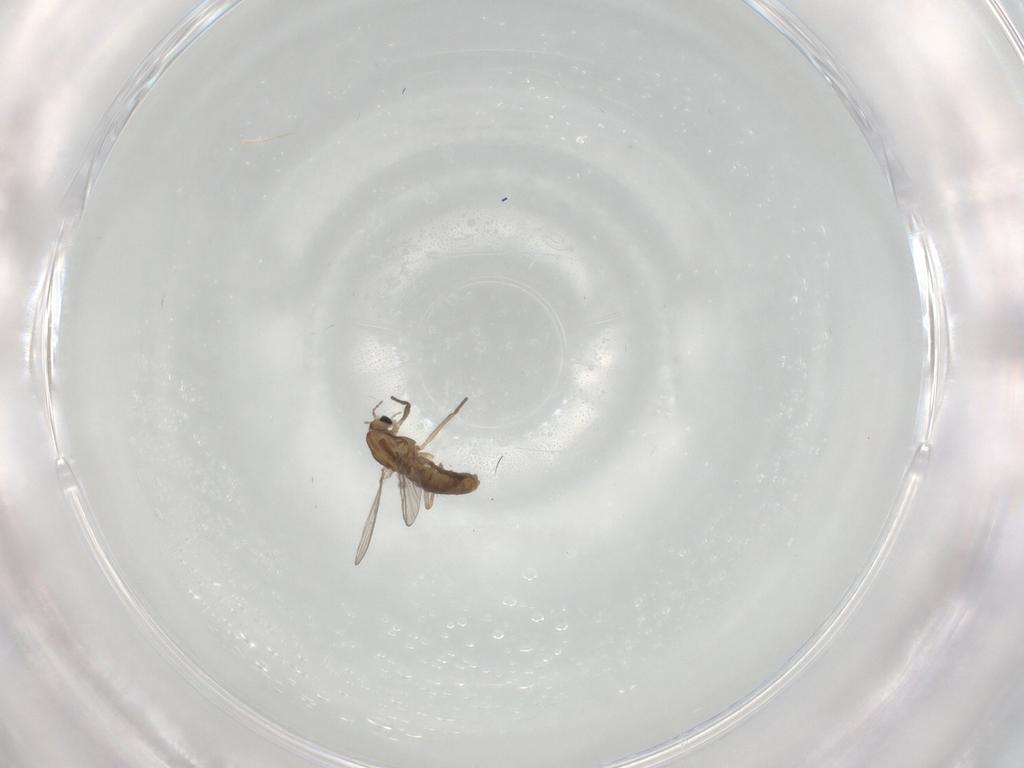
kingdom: Animalia
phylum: Arthropoda
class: Insecta
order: Diptera
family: Chironomidae
